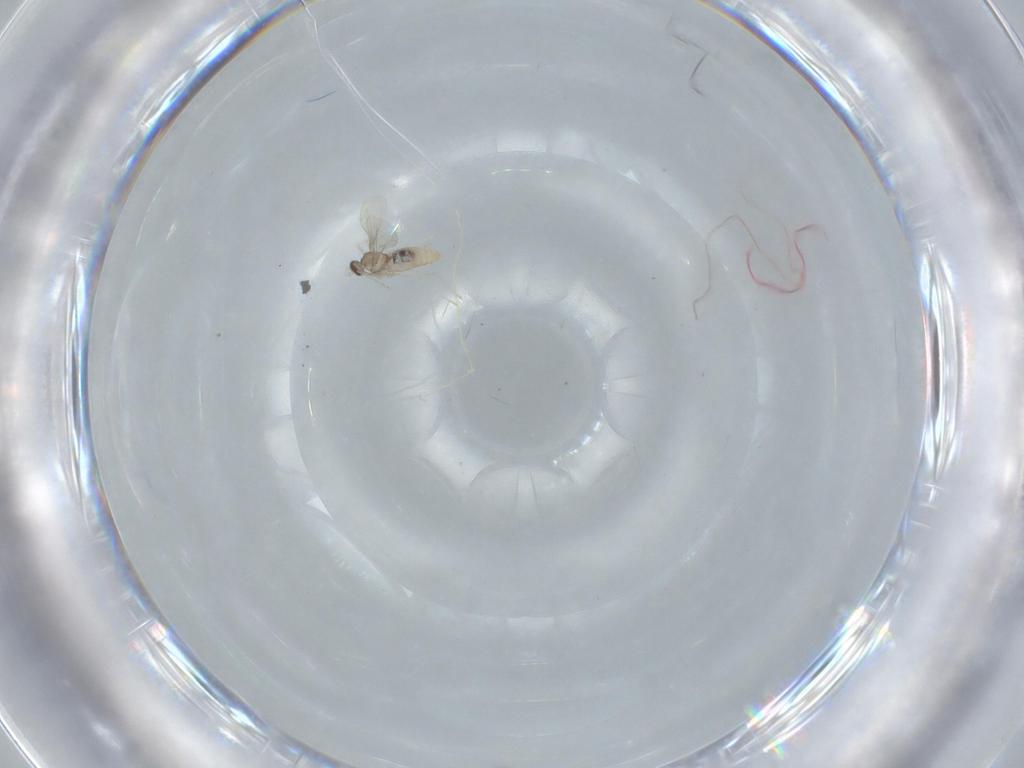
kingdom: Animalia
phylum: Arthropoda
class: Insecta
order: Diptera
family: Cecidomyiidae
